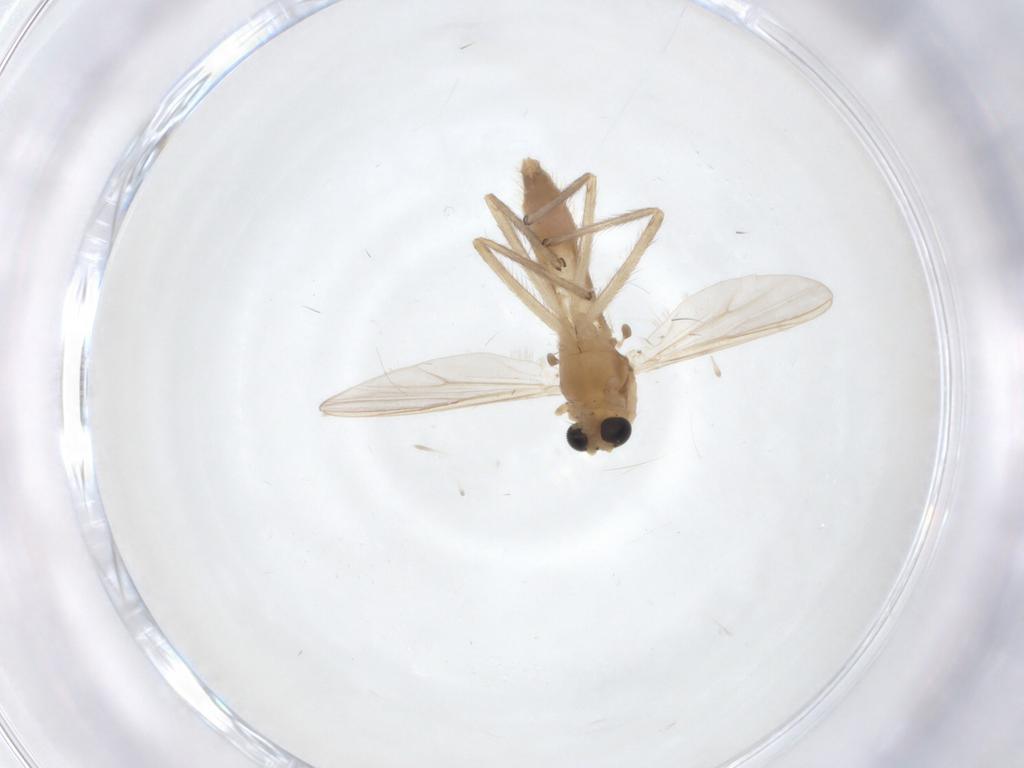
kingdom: Animalia
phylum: Arthropoda
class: Insecta
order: Diptera
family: Chironomidae
